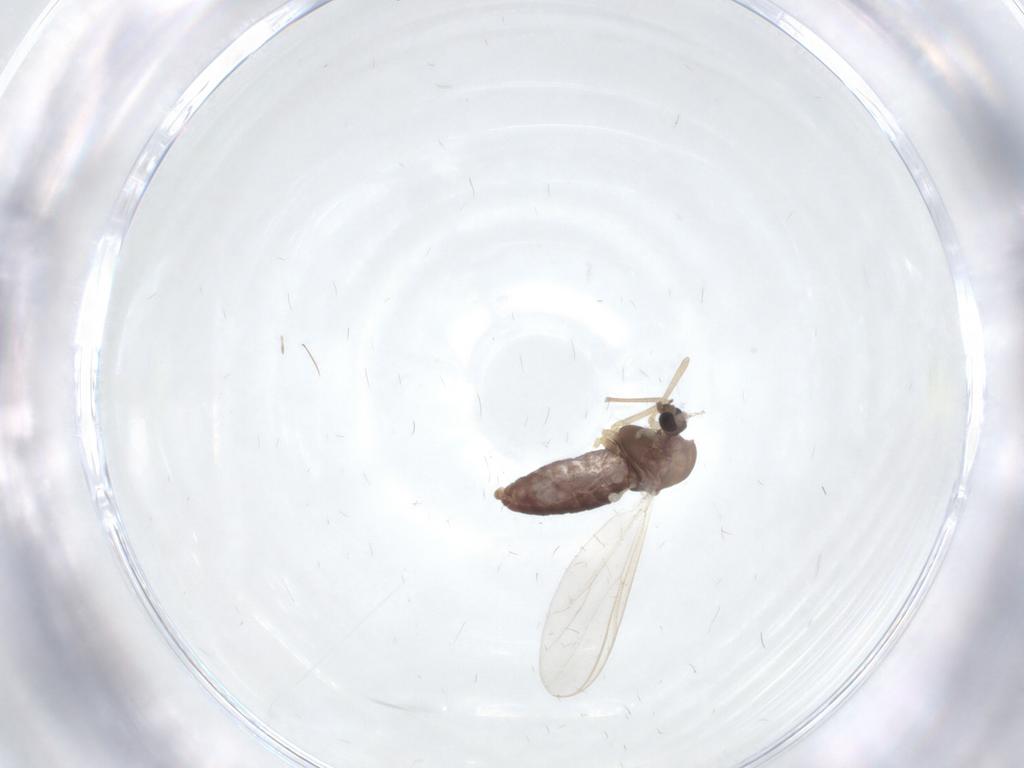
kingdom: Animalia
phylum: Arthropoda
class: Insecta
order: Diptera
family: Chironomidae
